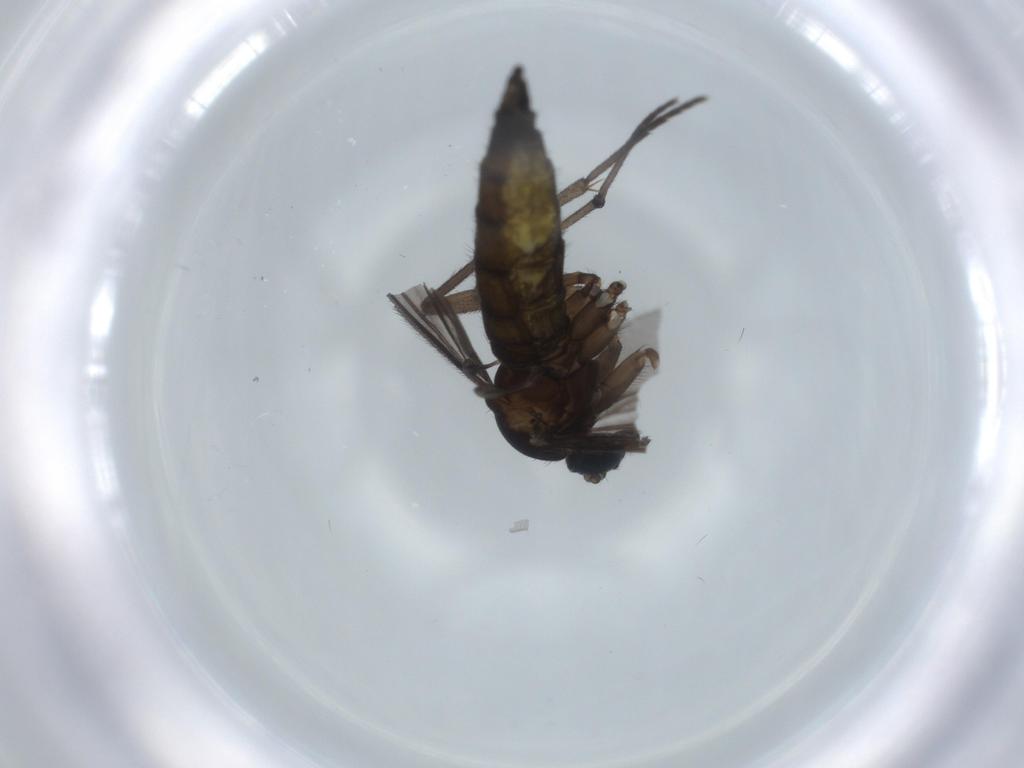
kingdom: Animalia
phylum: Arthropoda
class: Insecta
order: Diptera
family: Sciaridae
